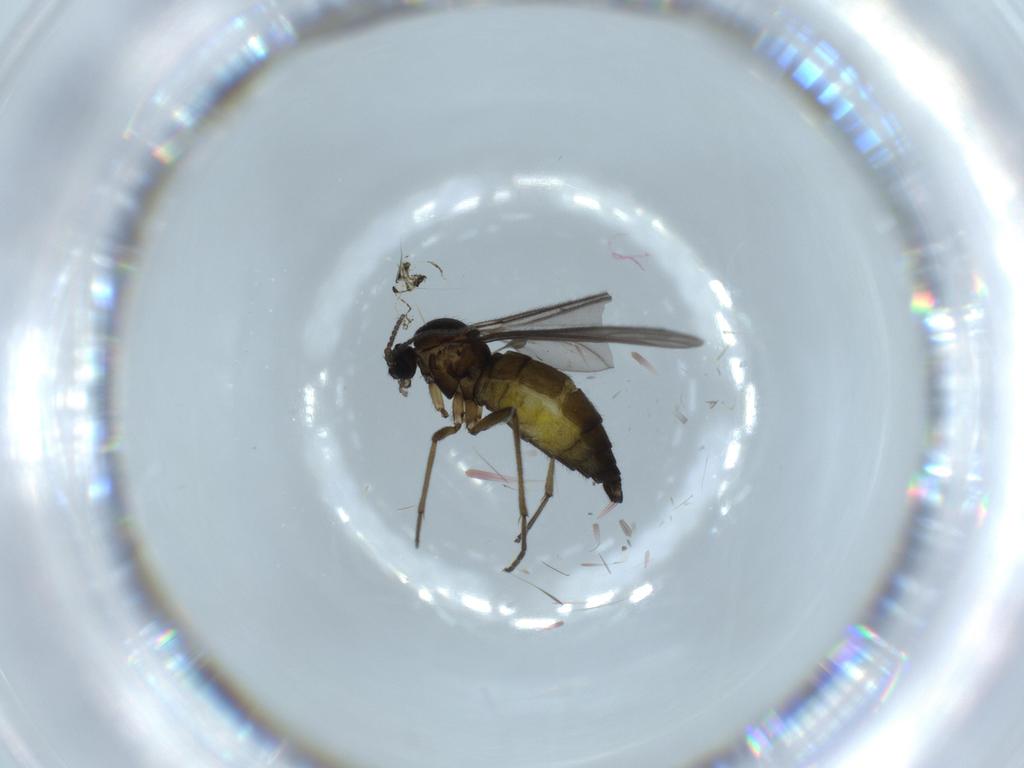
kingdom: Animalia
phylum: Arthropoda
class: Insecta
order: Diptera
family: Sciaridae
